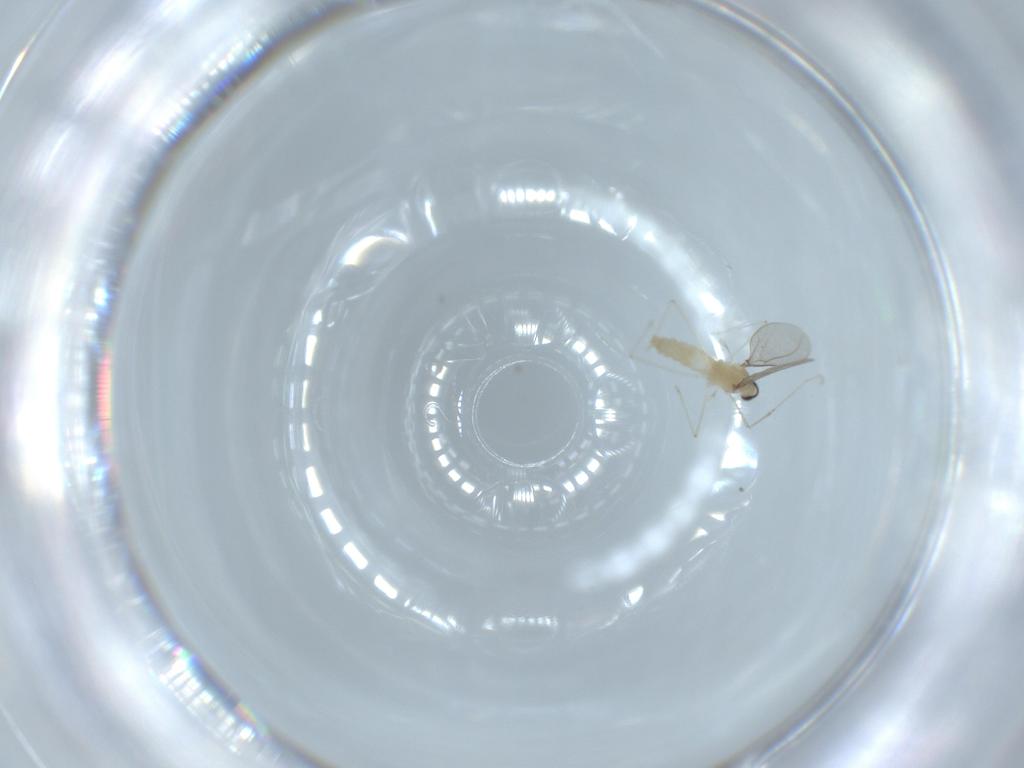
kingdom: Animalia
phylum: Arthropoda
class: Insecta
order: Diptera
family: Cecidomyiidae
